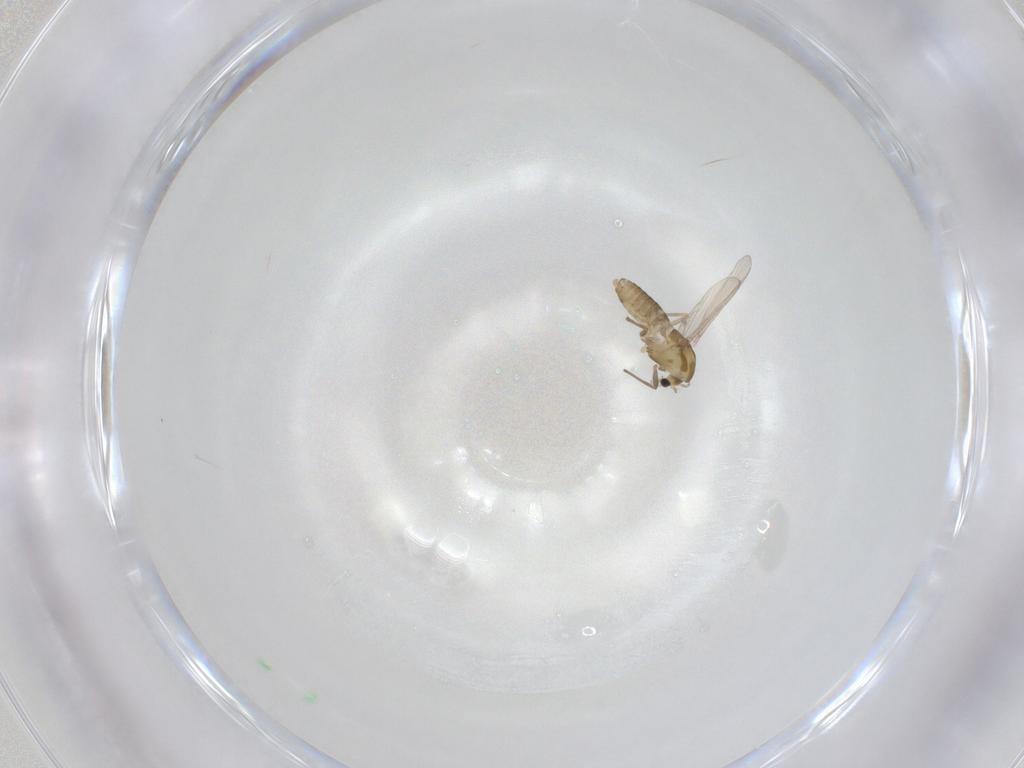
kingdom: Animalia
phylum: Arthropoda
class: Insecta
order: Diptera
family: Chironomidae
